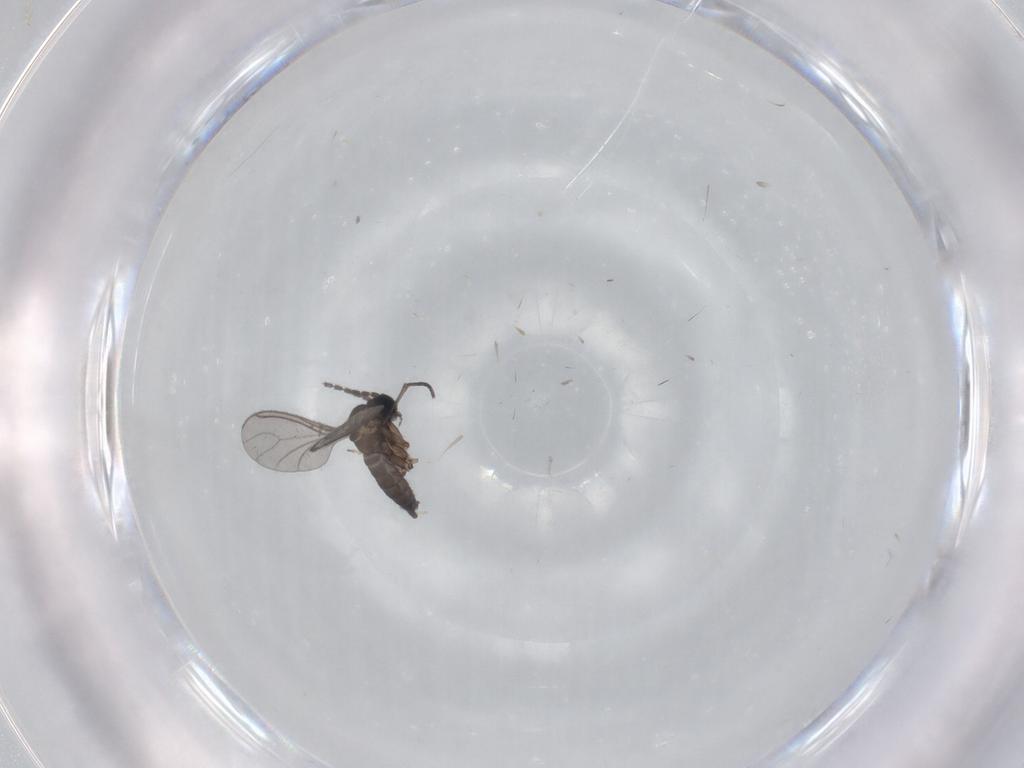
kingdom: Animalia
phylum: Arthropoda
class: Insecta
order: Diptera
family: Sciaridae
